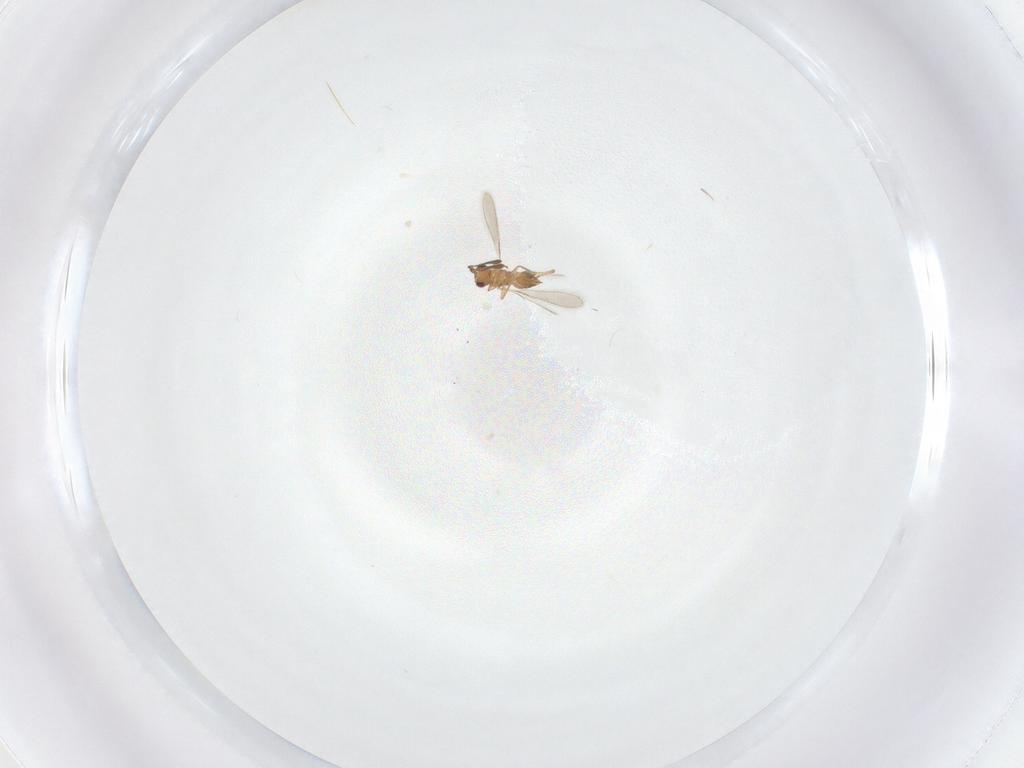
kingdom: Animalia
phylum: Arthropoda
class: Insecta
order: Hymenoptera
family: Mymaridae
